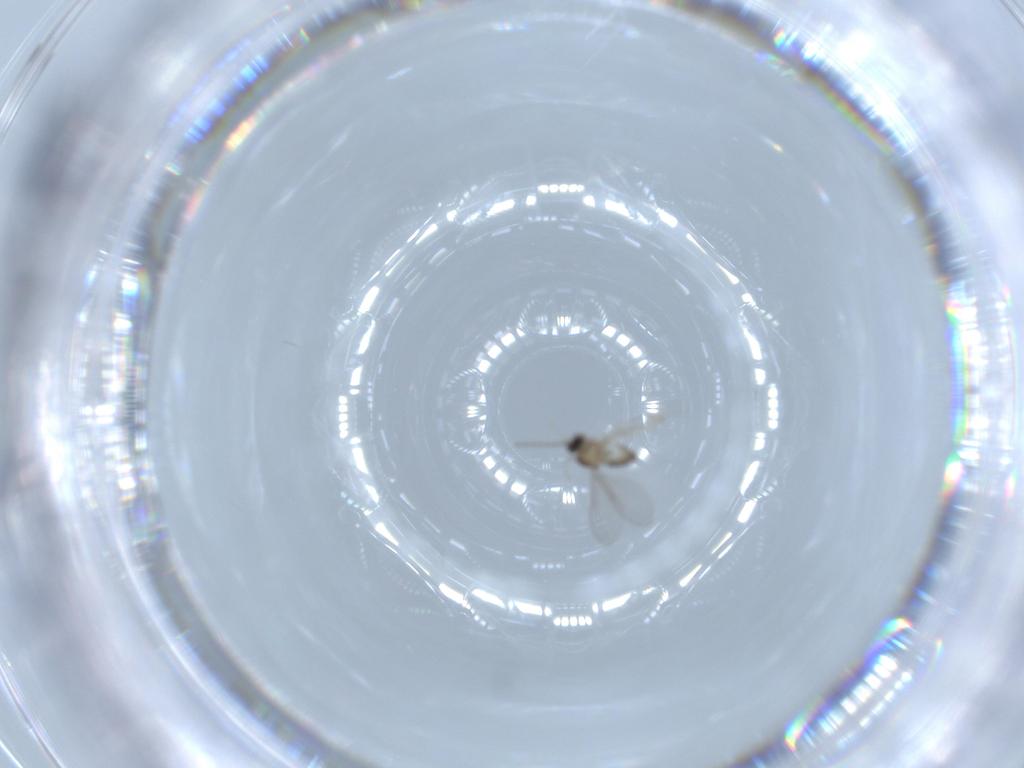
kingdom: Animalia
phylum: Arthropoda
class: Insecta
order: Diptera
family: Cecidomyiidae
